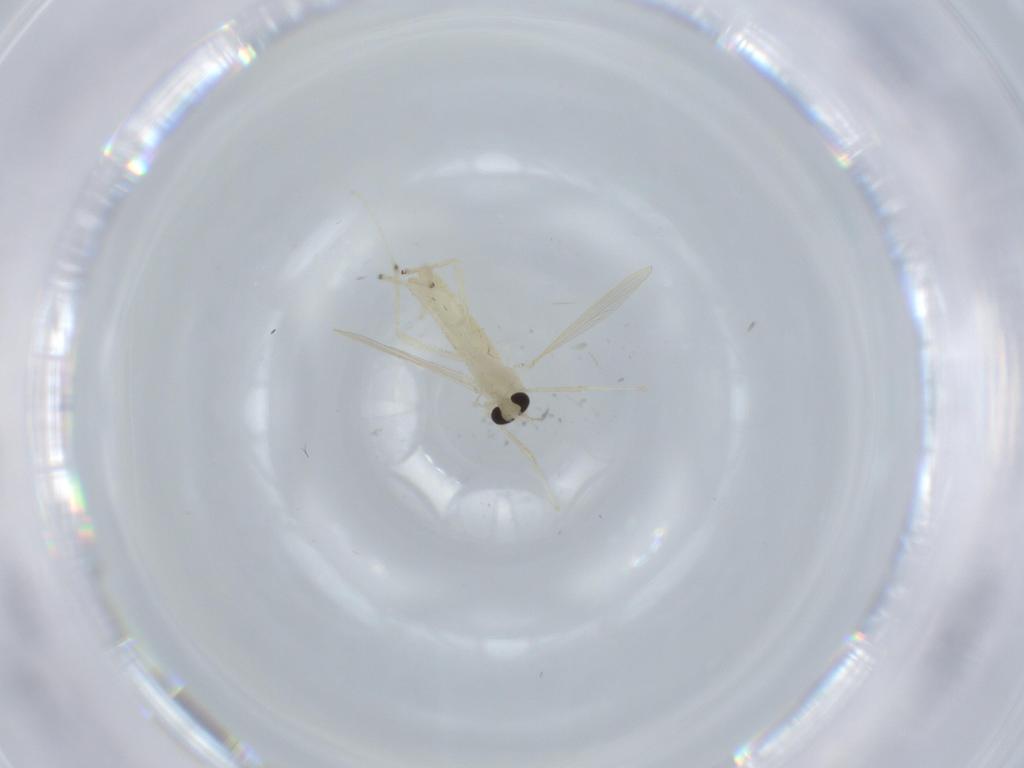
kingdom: Animalia
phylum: Arthropoda
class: Insecta
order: Diptera
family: Chironomidae
